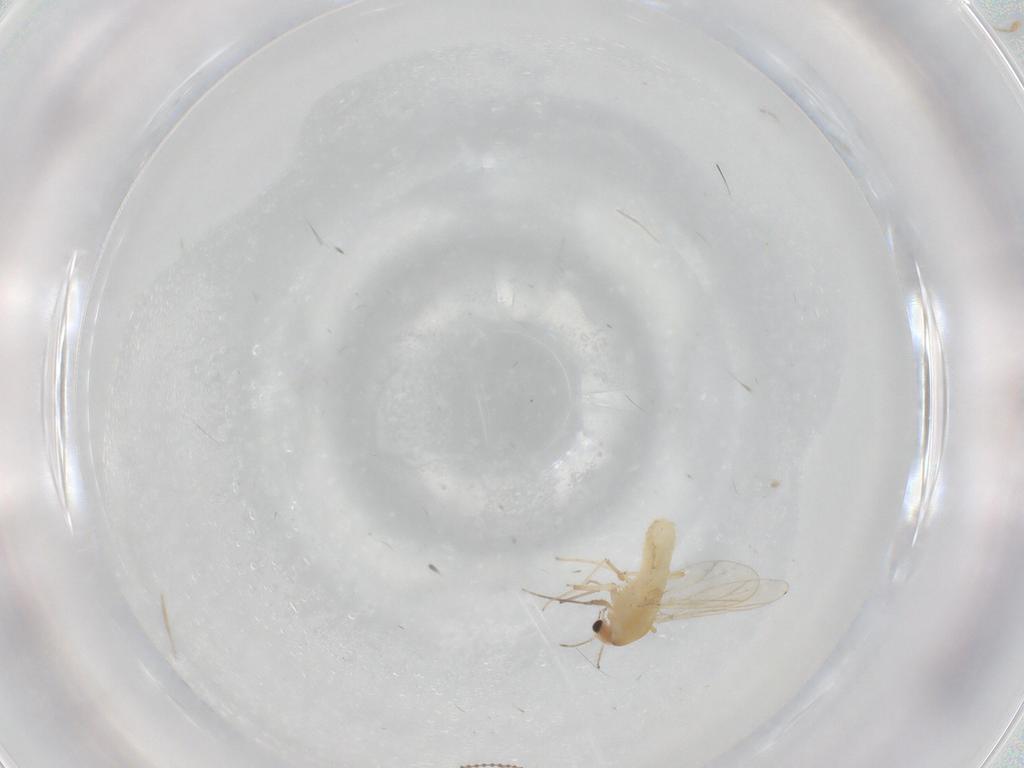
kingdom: Animalia
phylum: Arthropoda
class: Insecta
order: Diptera
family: Chironomidae
